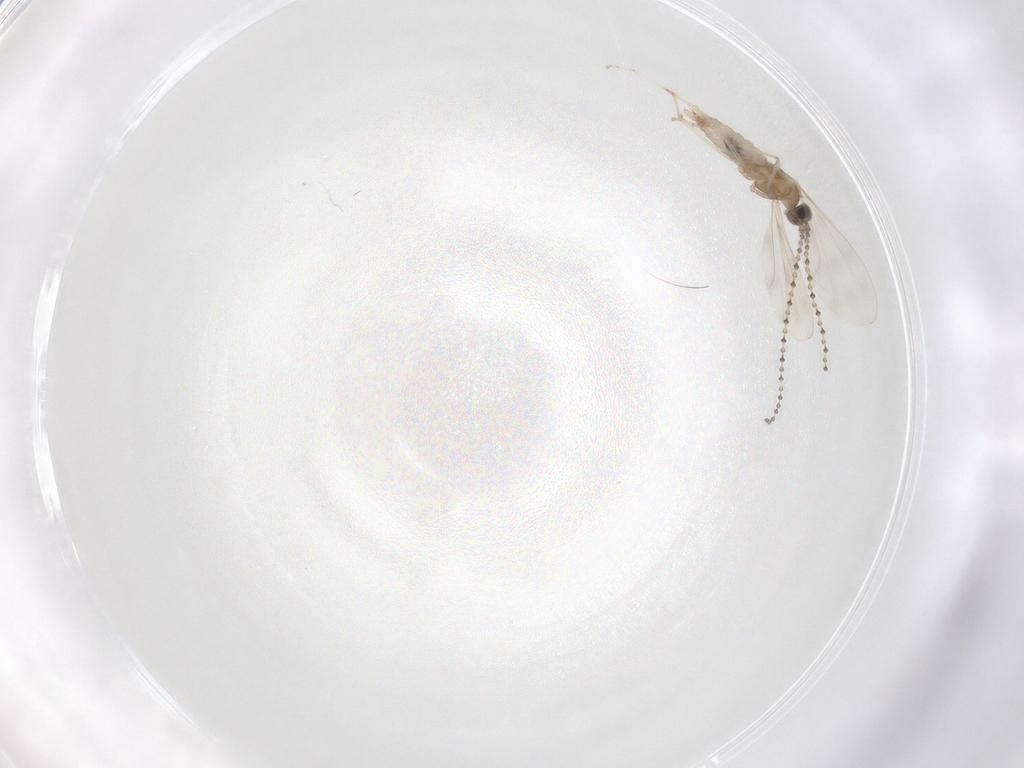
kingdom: Animalia
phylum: Arthropoda
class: Insecta
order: Diptera
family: Cecidomyiidae
